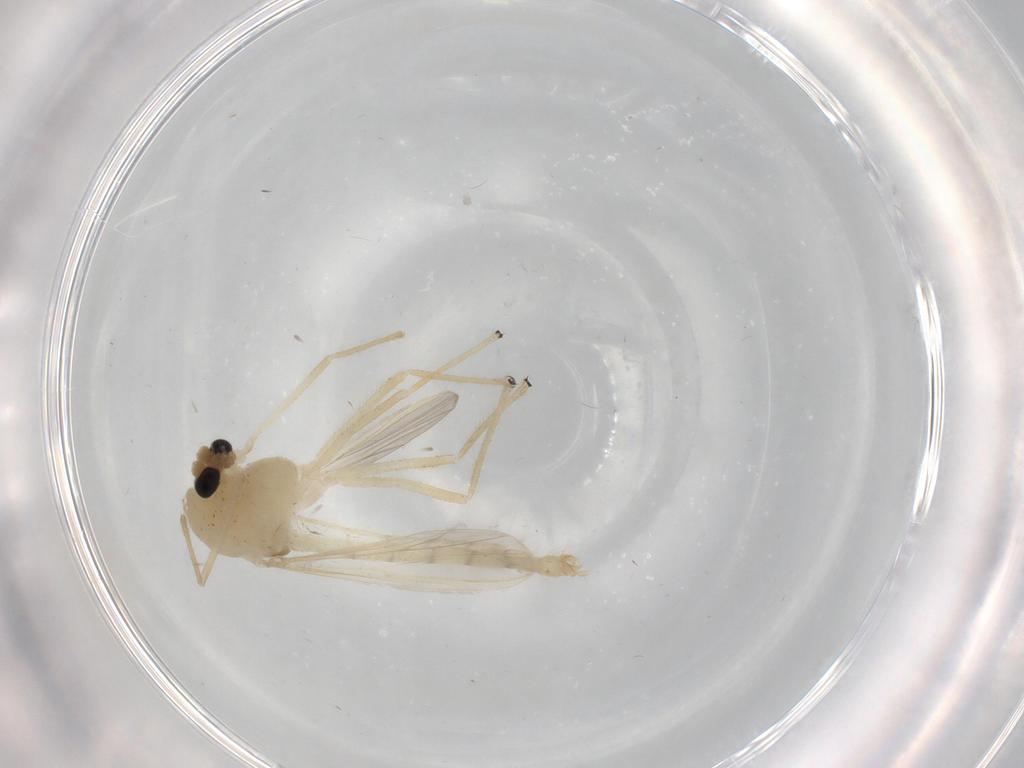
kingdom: Animalia
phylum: Arthropoda
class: Insecta
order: Diptera
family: Chironomidae
